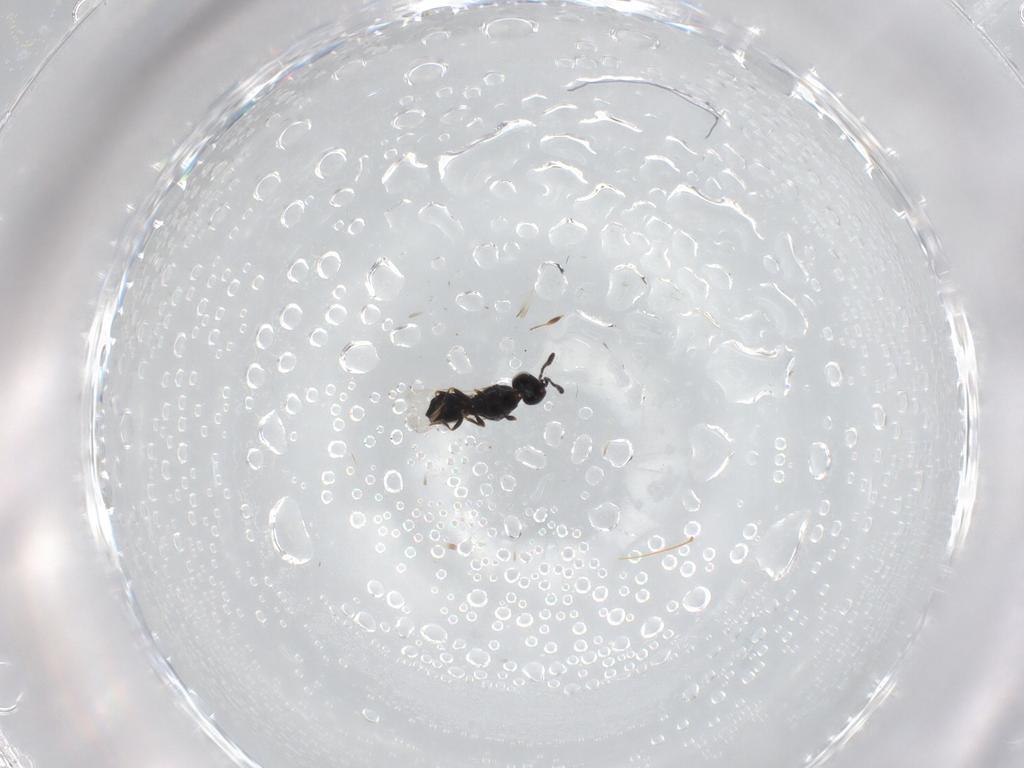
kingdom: Animalia
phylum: Arthropoda
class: Insecta
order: Hymenoptera
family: Scelionidae
